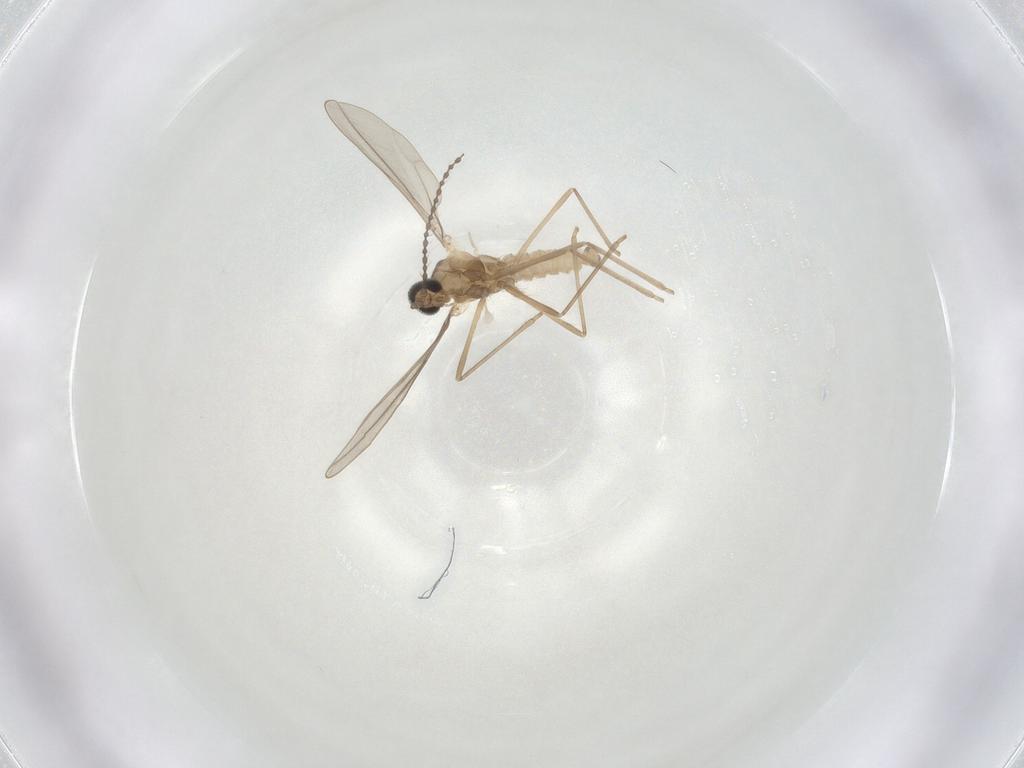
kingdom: Animalia
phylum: Arthropoda
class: Insecta
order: Diptera
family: Cecidomyiidae
